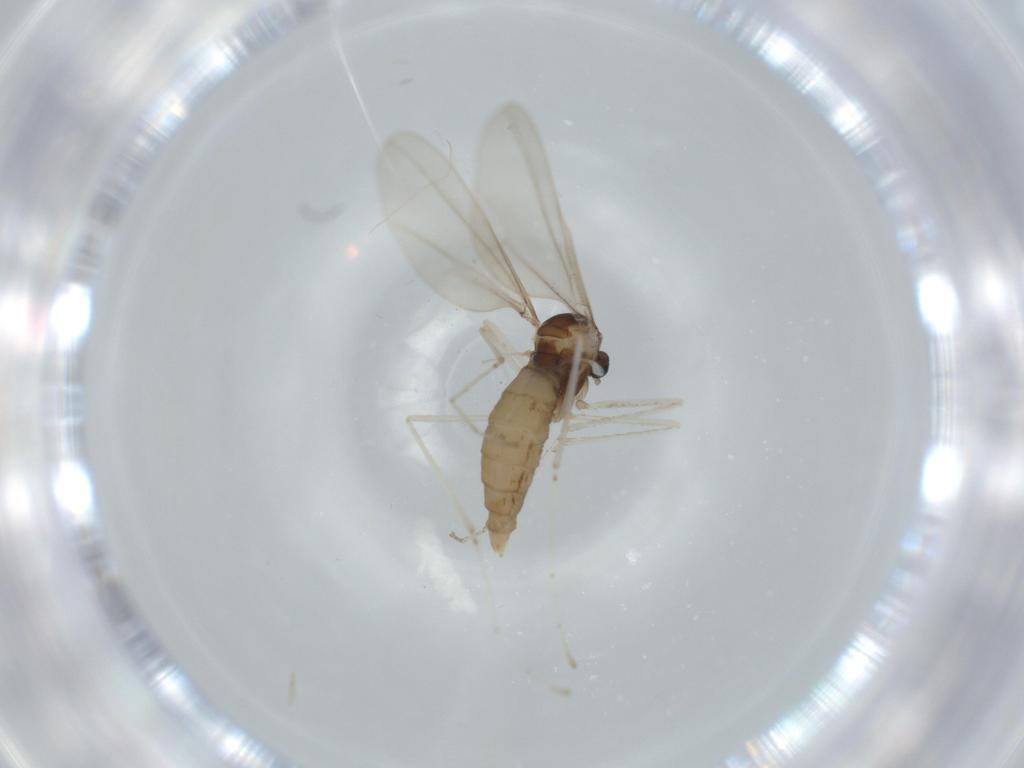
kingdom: Animalia
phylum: Arthropoda
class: Insecta
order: Diptera
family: Cecidomyiidae
